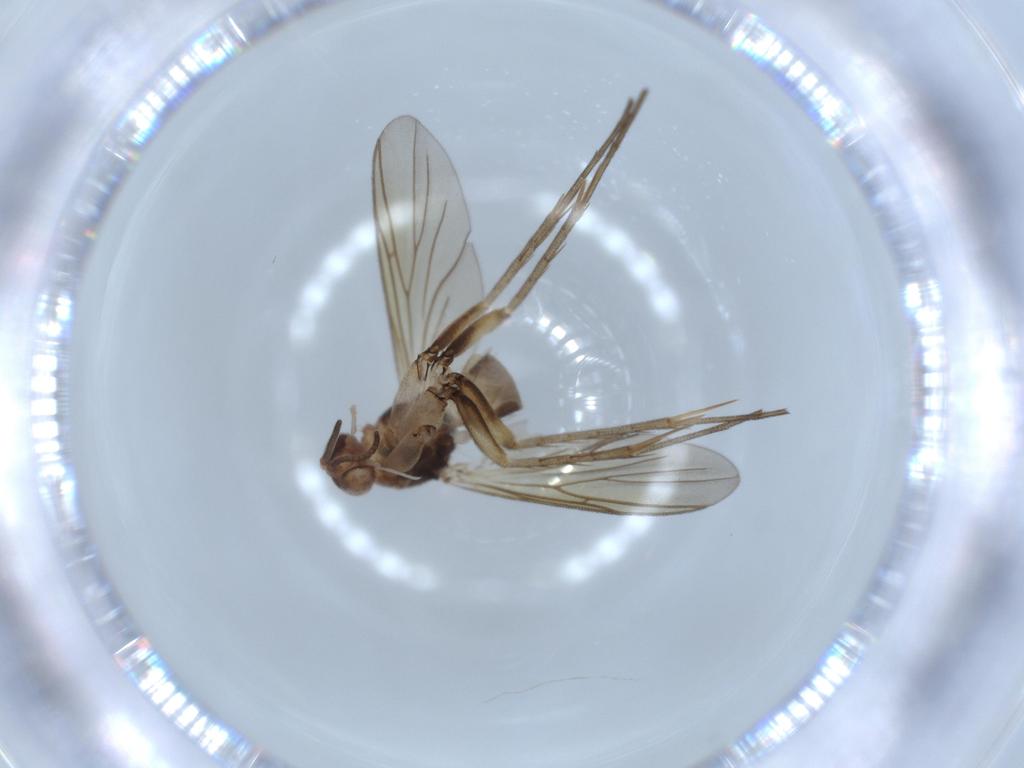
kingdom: Animalia
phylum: Arthropoda
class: Insecta
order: Diptera
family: Mycetophilidae
